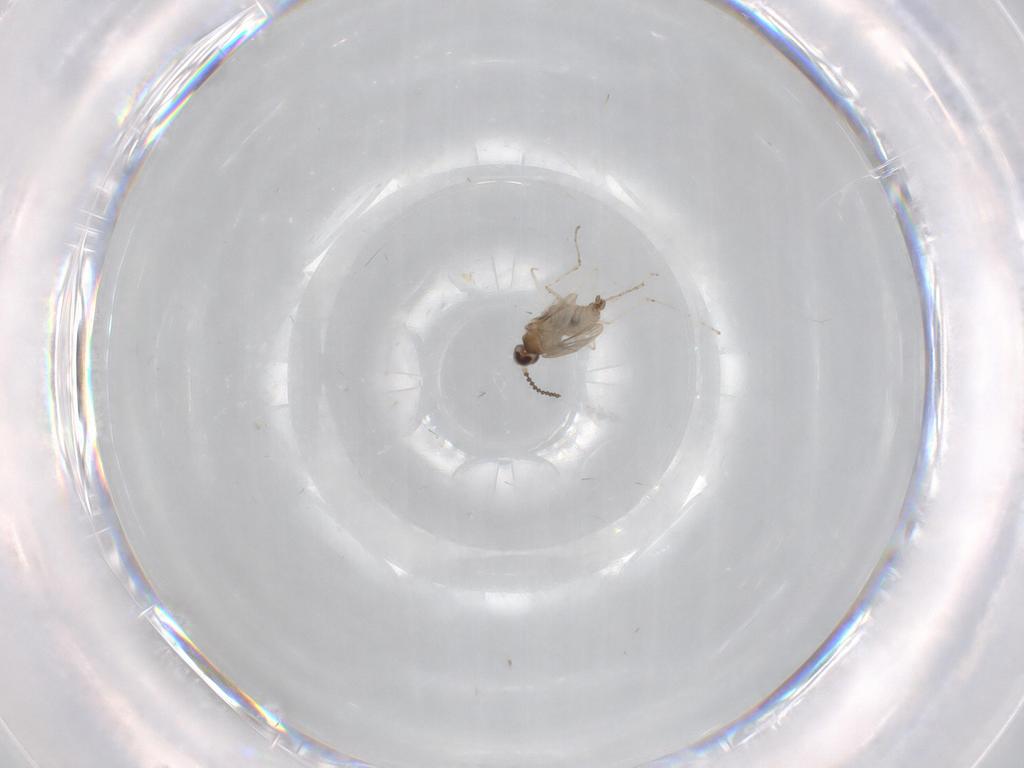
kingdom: Animalia
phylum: Arthropoda
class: Insecta
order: Diptera
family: Cecidomyiidae
